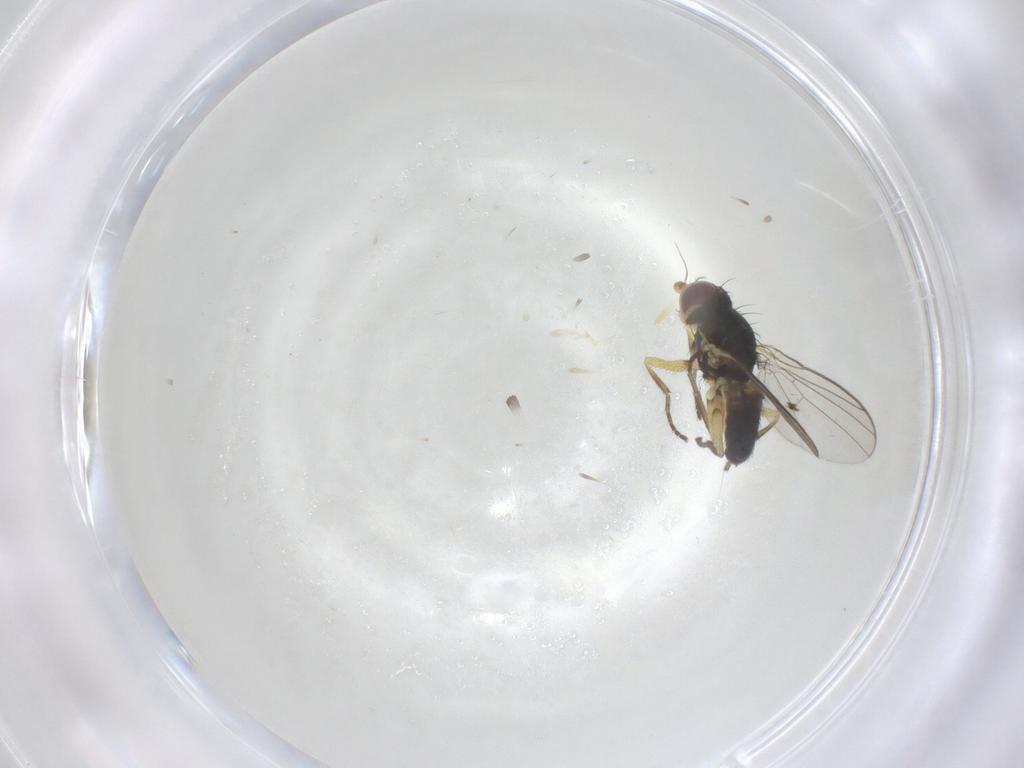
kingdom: Animalia
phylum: Arthropoda
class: Insecta
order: Diptera
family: Agromyzidae
